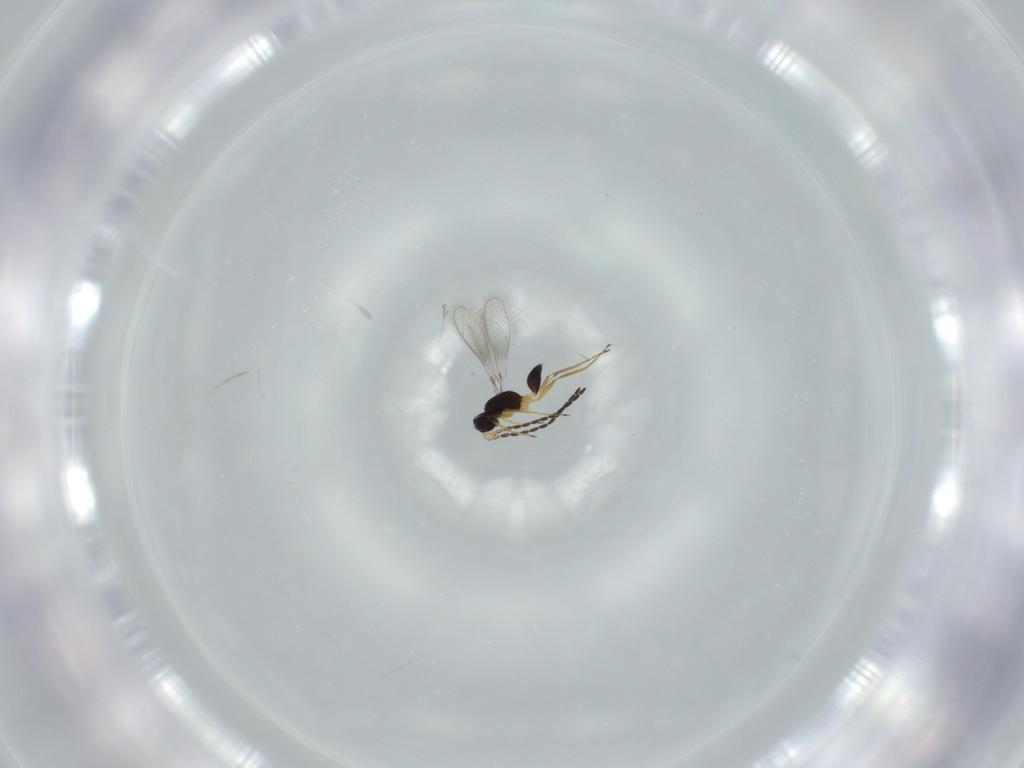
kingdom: Animalia
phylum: Arthropoda
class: Insecta
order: Hymenoptera
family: Mymaridae
